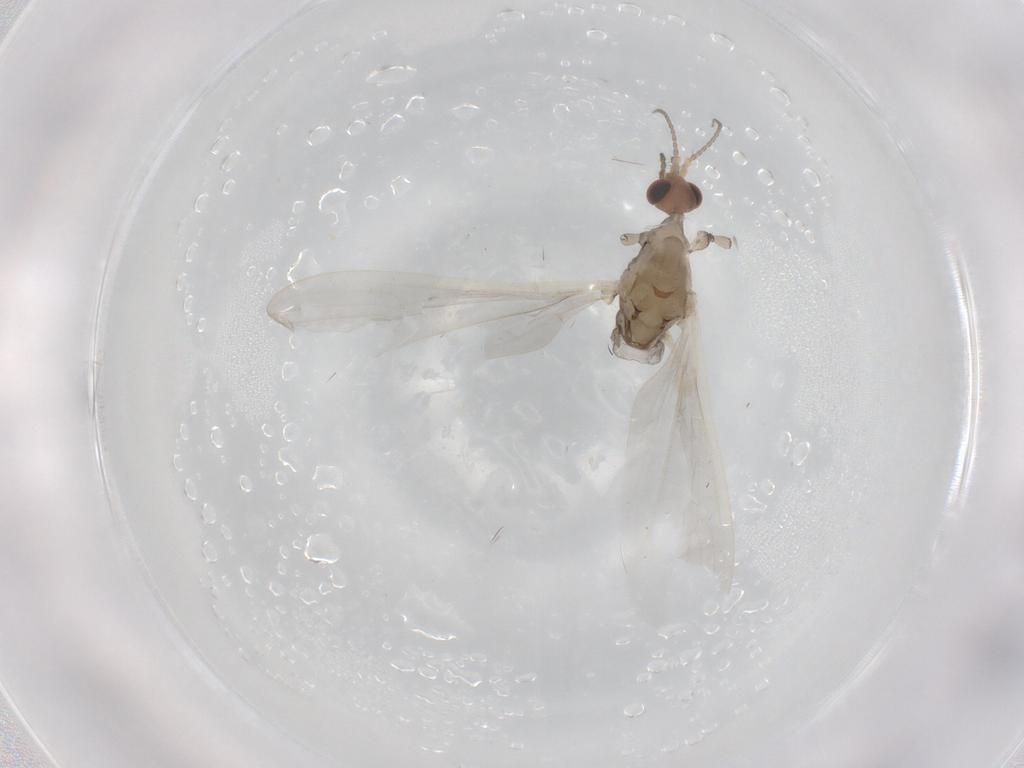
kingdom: Animalia
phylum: Arthropoda
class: Insecta
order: Diptera
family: Limoniidae
